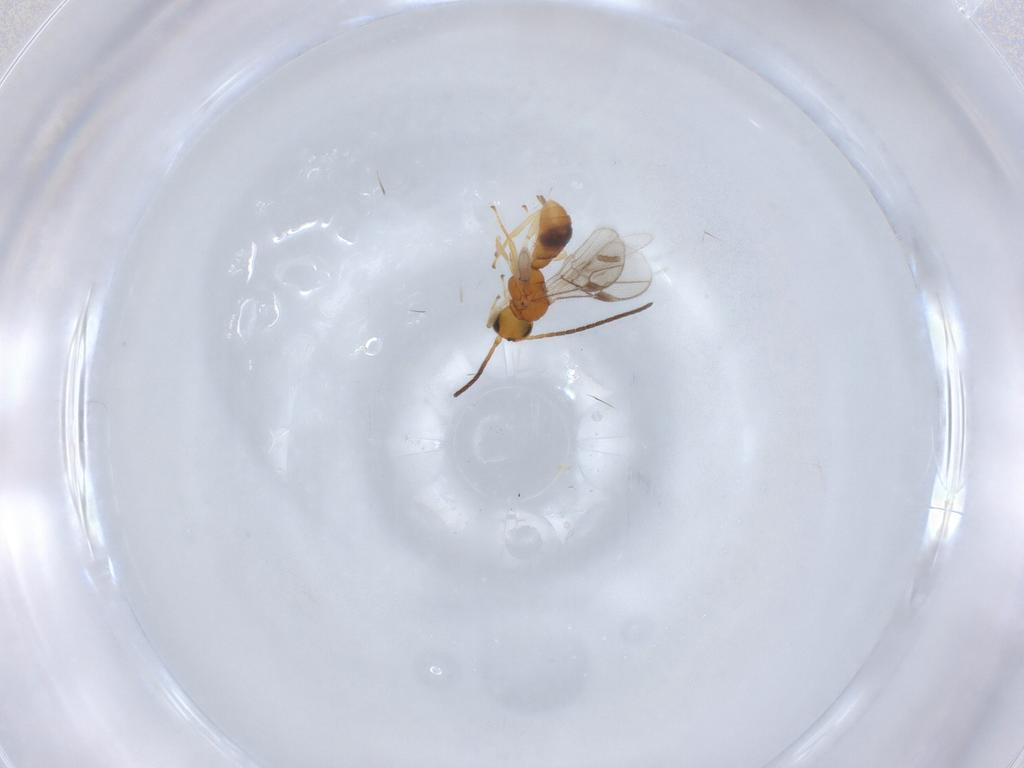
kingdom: Animalia
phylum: Arthropoda
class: Insecta
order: Hymenoptera
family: Braconidae
